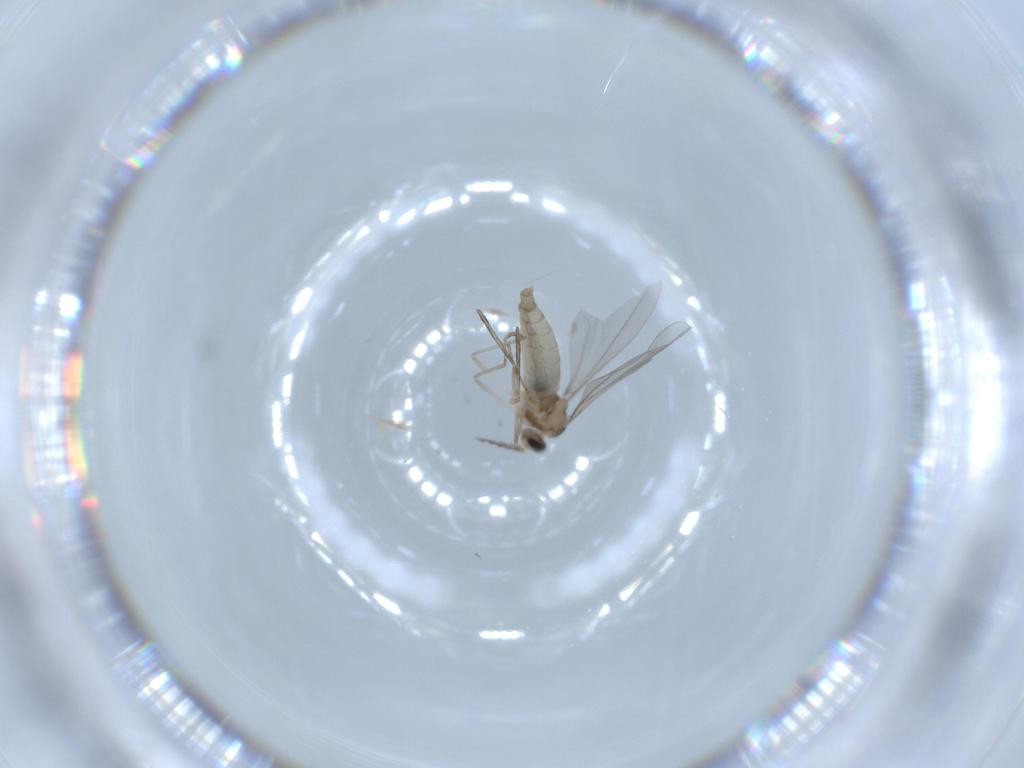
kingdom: Animalia
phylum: Arthropoda
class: Insecta
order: Diptera
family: Cecidomyiidae
